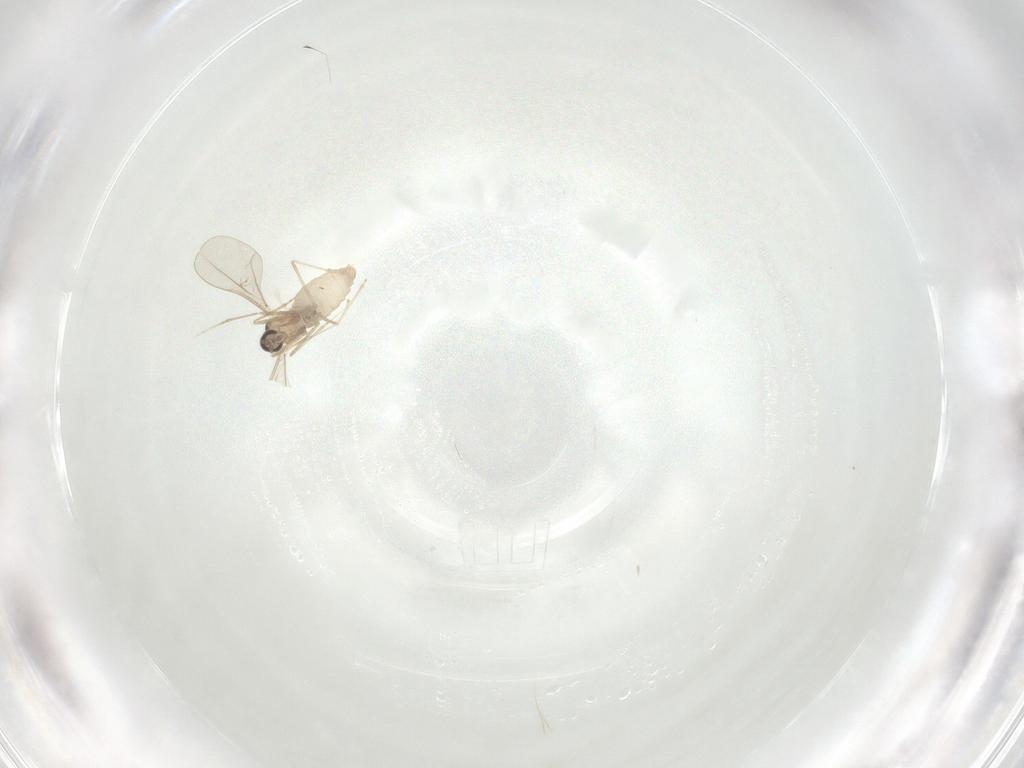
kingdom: Animalia
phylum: Arthropoda
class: Insecta
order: Diptera
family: Cecidomyiidae
